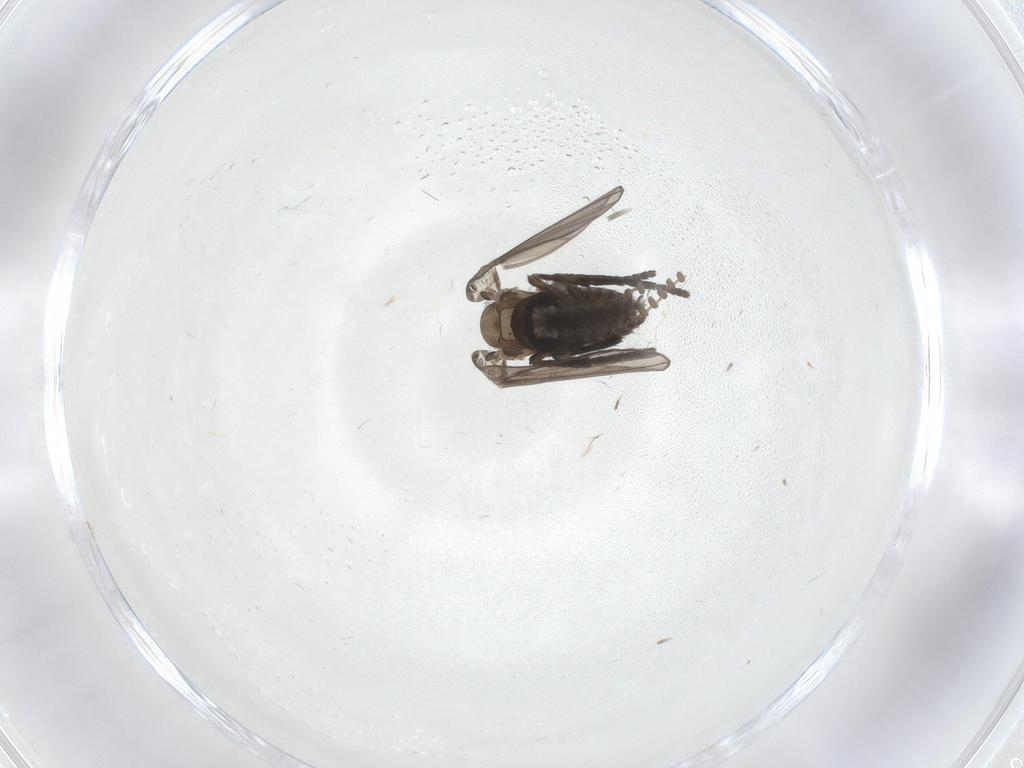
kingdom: Animalia
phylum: Arthropoda
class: Insecta
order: Diptera
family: Psychodidae
